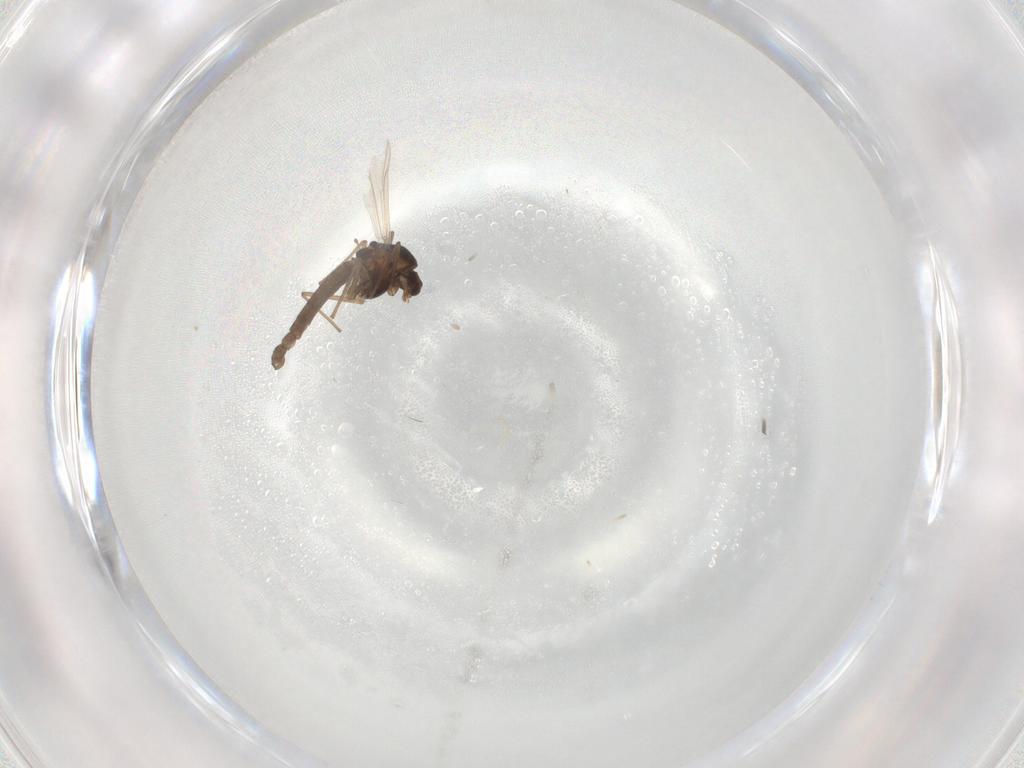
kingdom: Animalia
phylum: Arthropoda
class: Insecta
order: Diptera
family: Chironomidae
